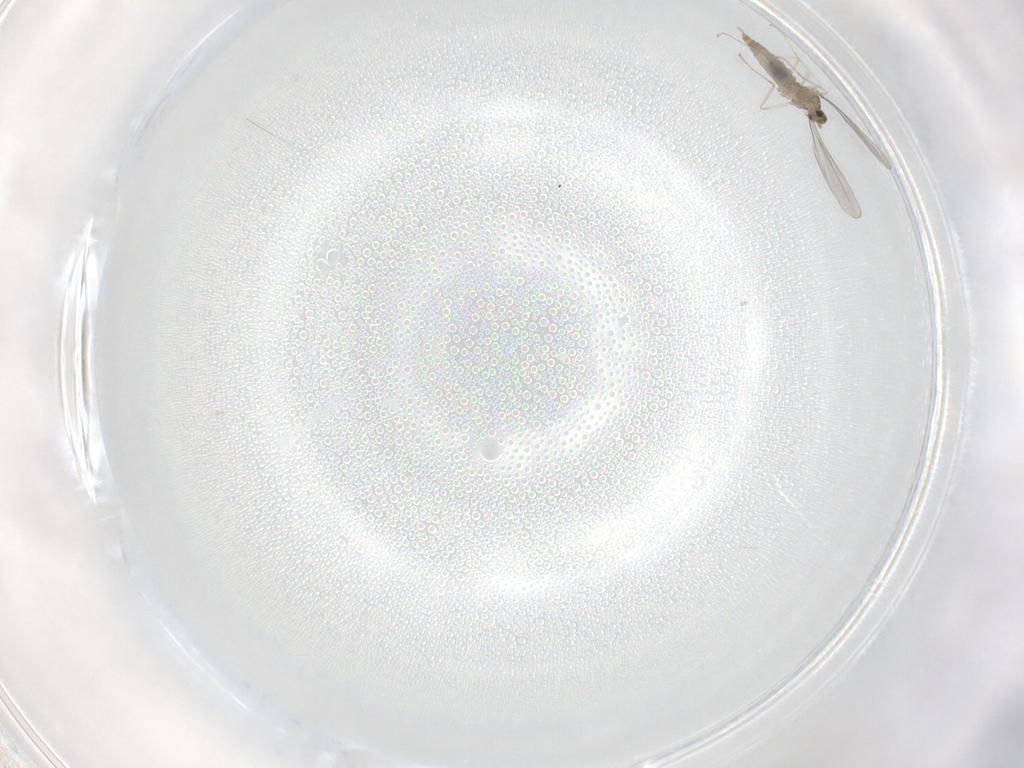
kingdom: Animalia
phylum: Arthropoda
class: Insecta
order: Diptera
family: Cecidomyiidae
